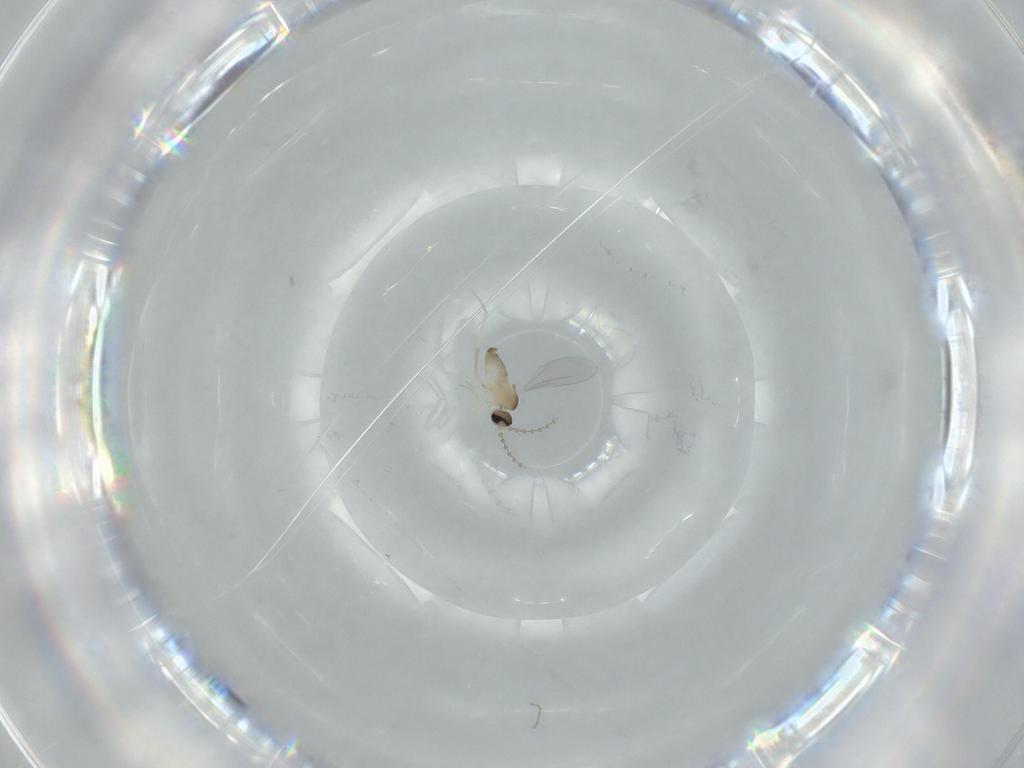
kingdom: Animalia
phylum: Arthropoda
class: Insecta
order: Diptera
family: Cecidomyiidae
